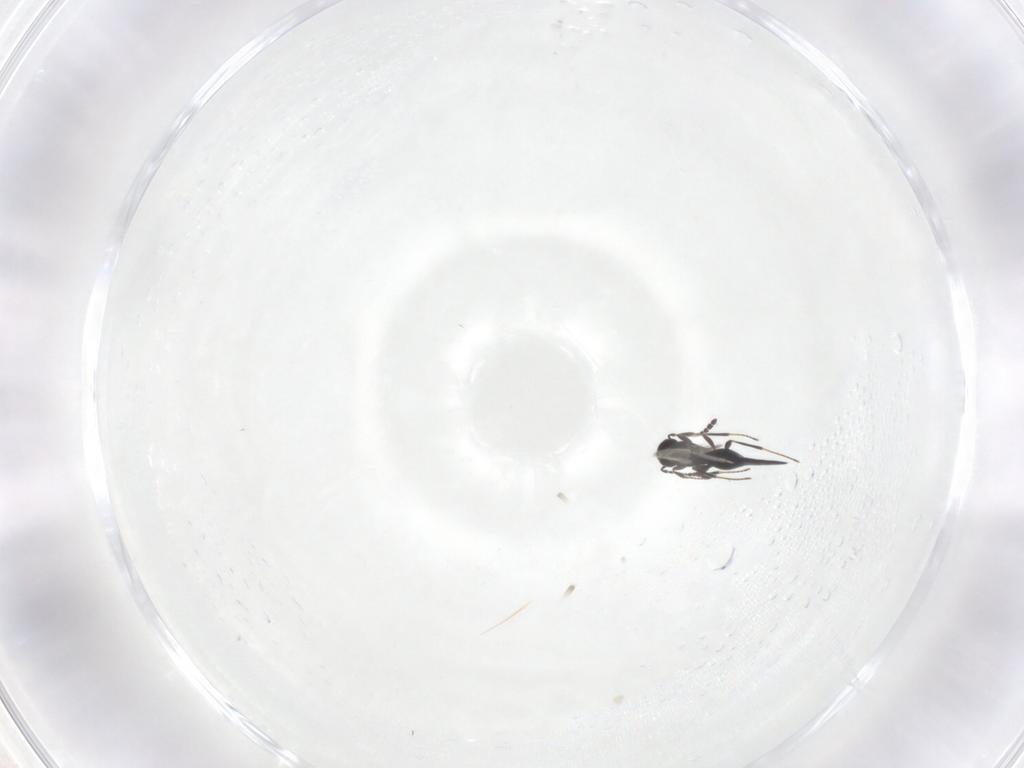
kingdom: Animalia
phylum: Arthropoda
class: Insecta
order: Hymenoptera
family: Scelionidae
